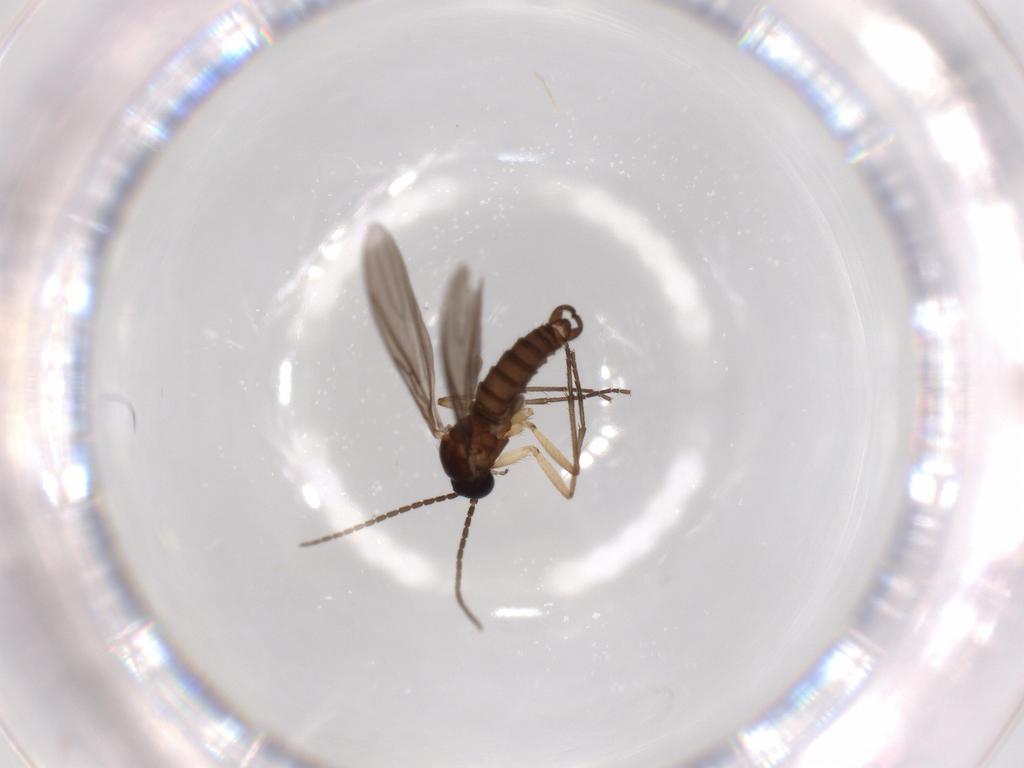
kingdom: Animalia
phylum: Arthropoda
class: Insecta
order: Diptera
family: Sciaridae
